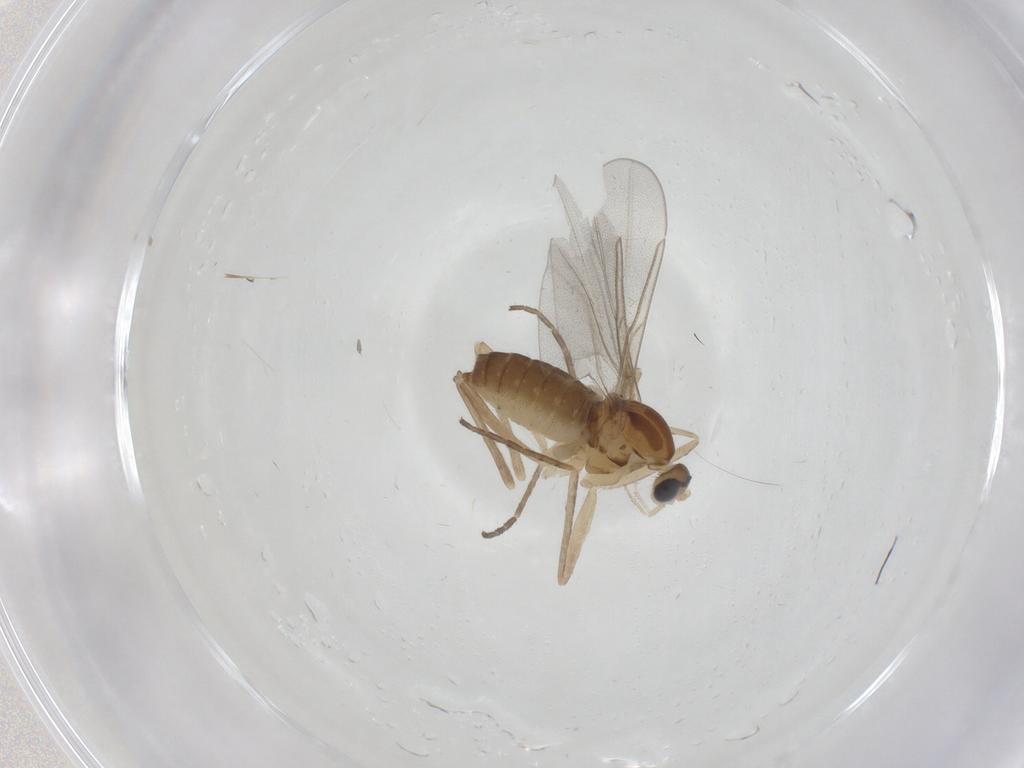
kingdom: Animalia
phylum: Arthropoda
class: Insecta
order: Diptera
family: Cecidomyiidae
